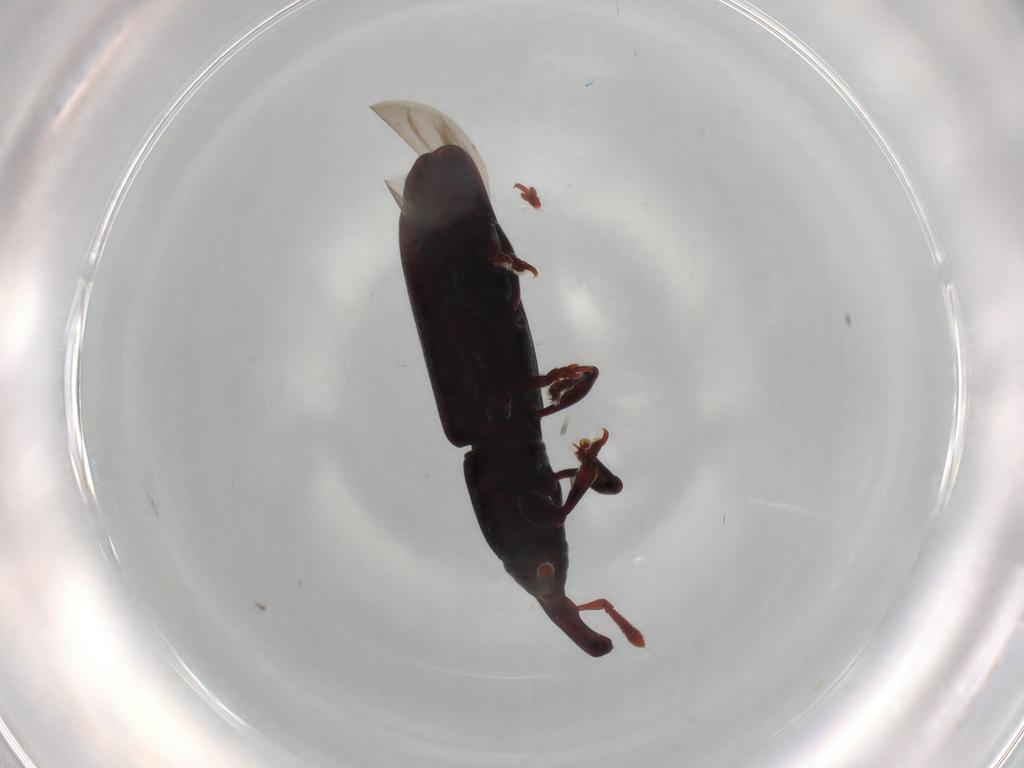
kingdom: Animalia
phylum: Arthropoda
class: Insecta
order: Coleoptera
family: Curculionidae
